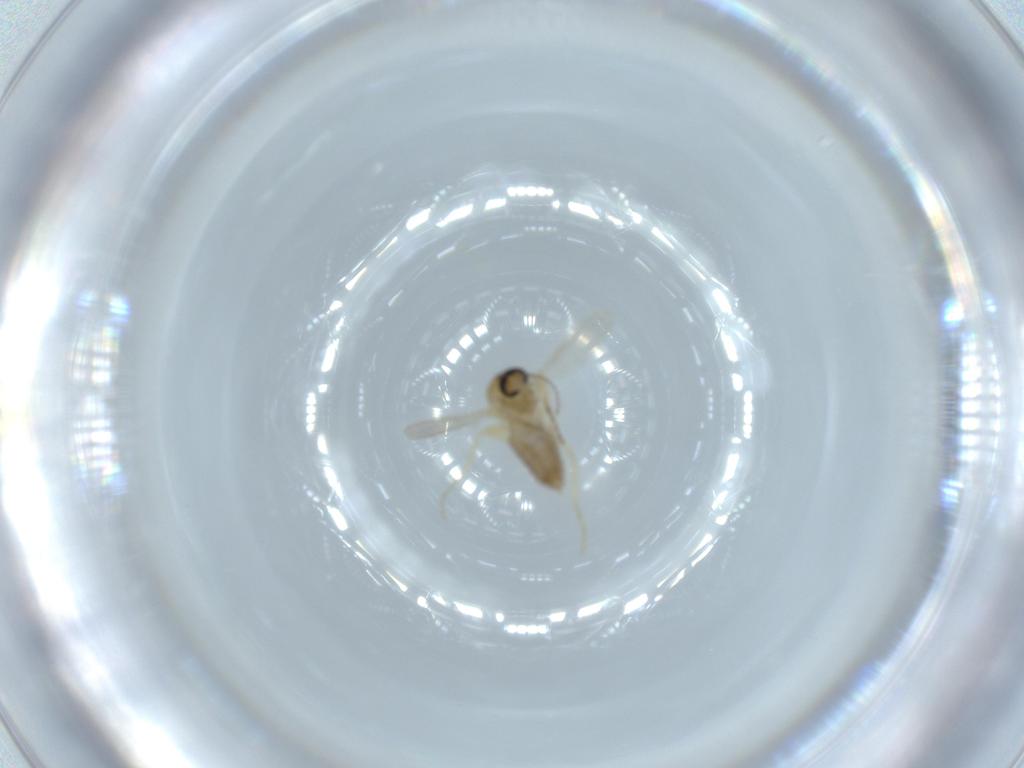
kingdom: Animalia
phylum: Arthropoda
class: Insecta
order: Diptera
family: Ceratopogonidae
